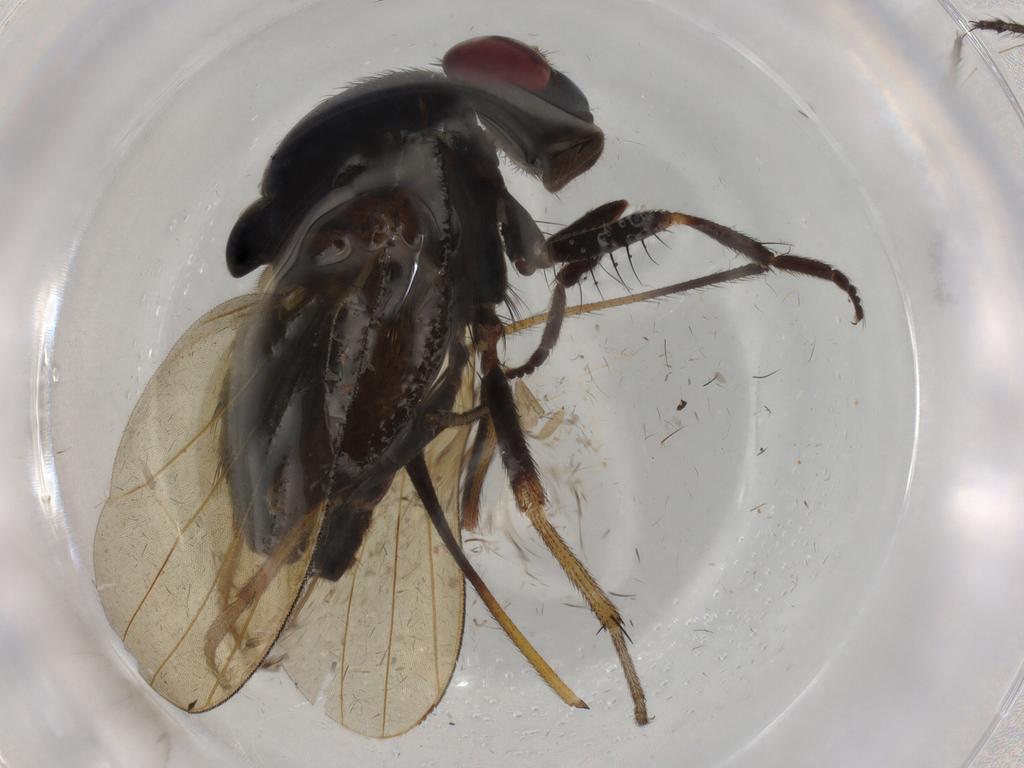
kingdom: Animalia
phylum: Arthropoda
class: Insecta
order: Diptera
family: Limoniidae
